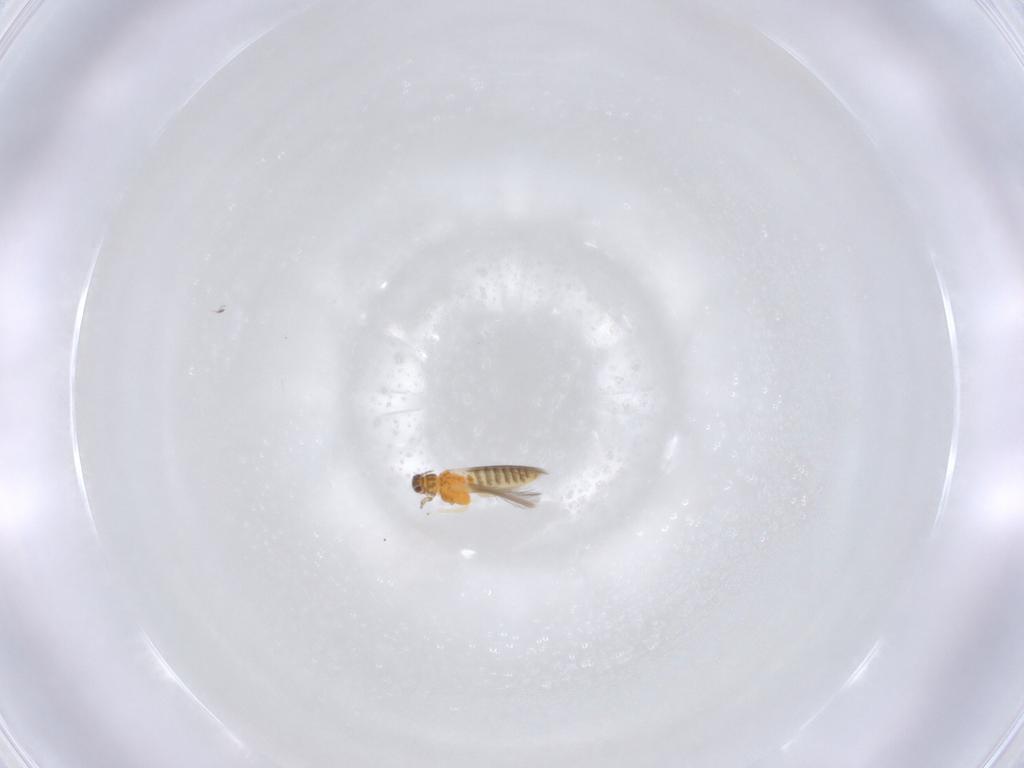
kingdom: Animalia
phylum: Arthropoda
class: Insecta
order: Thysanoptera
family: Thripidae
